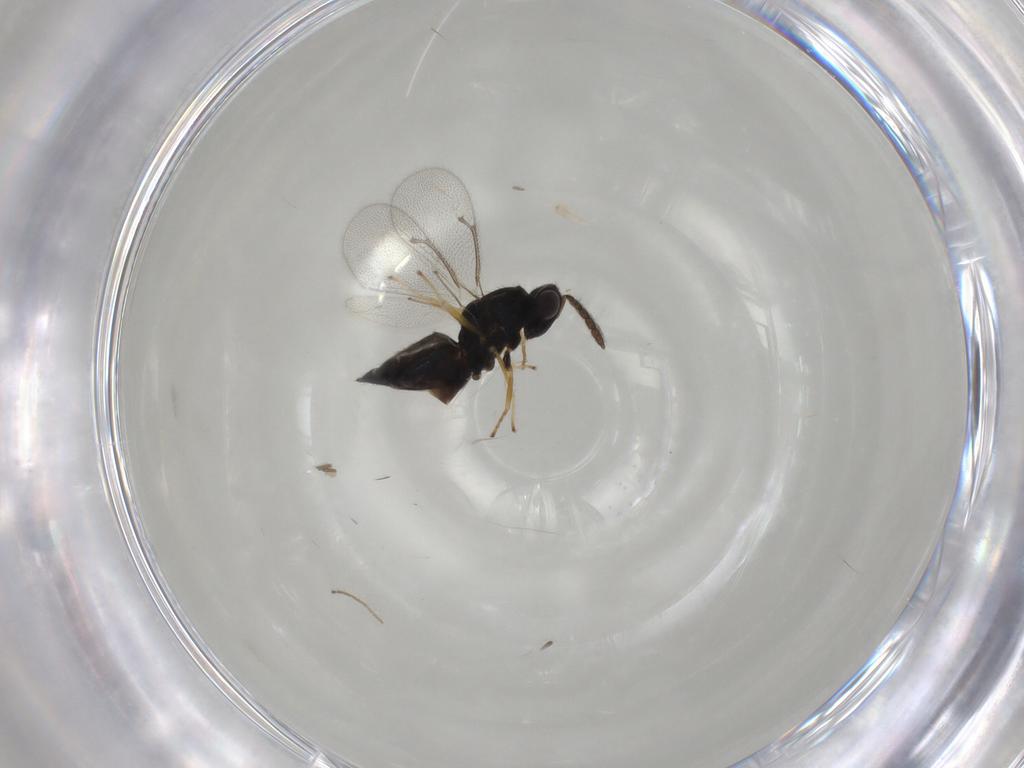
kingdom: Animalia
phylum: Arthropoda
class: Insecta
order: Hymenoptera
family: Eulophidae
